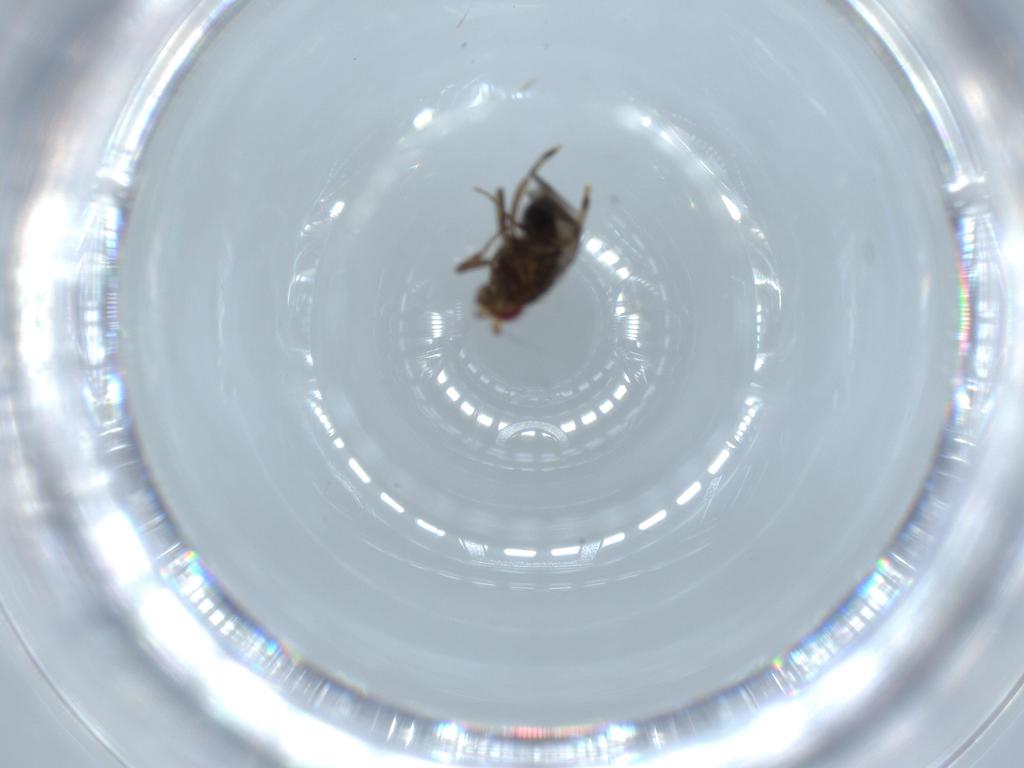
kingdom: Animalia
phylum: Arthropoda
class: Insecta
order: Diptera
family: Sphaeroceridae
